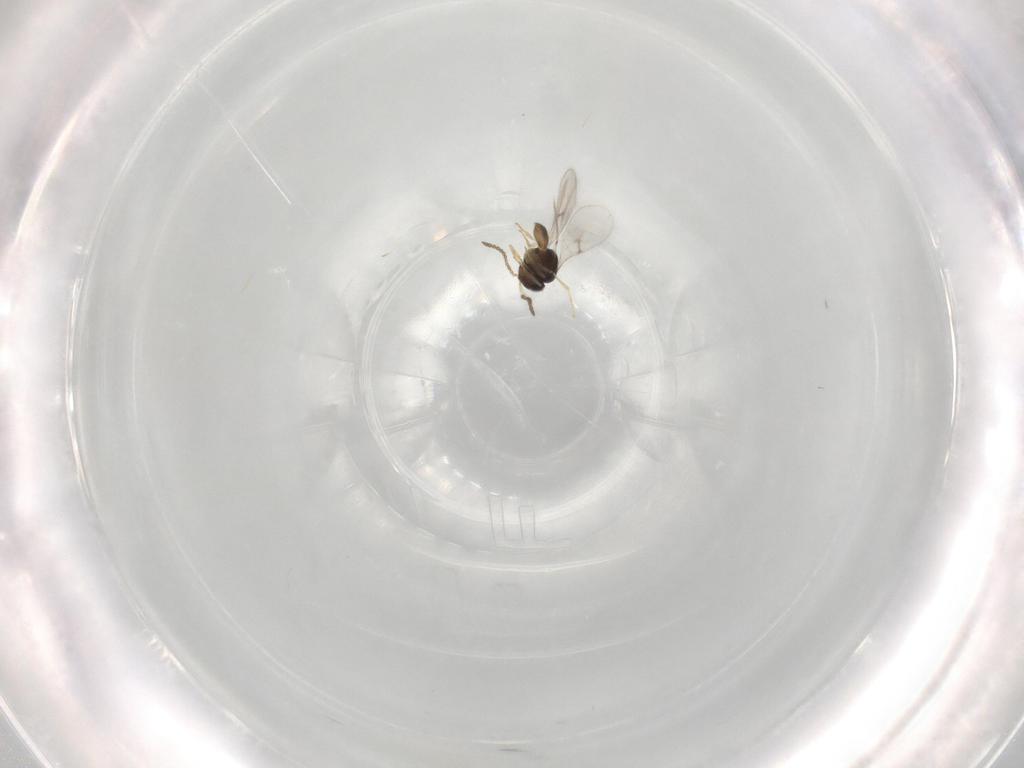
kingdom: Animalia
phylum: Arthropoda
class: Insecta
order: Hymenoptera
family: Scelionidae
